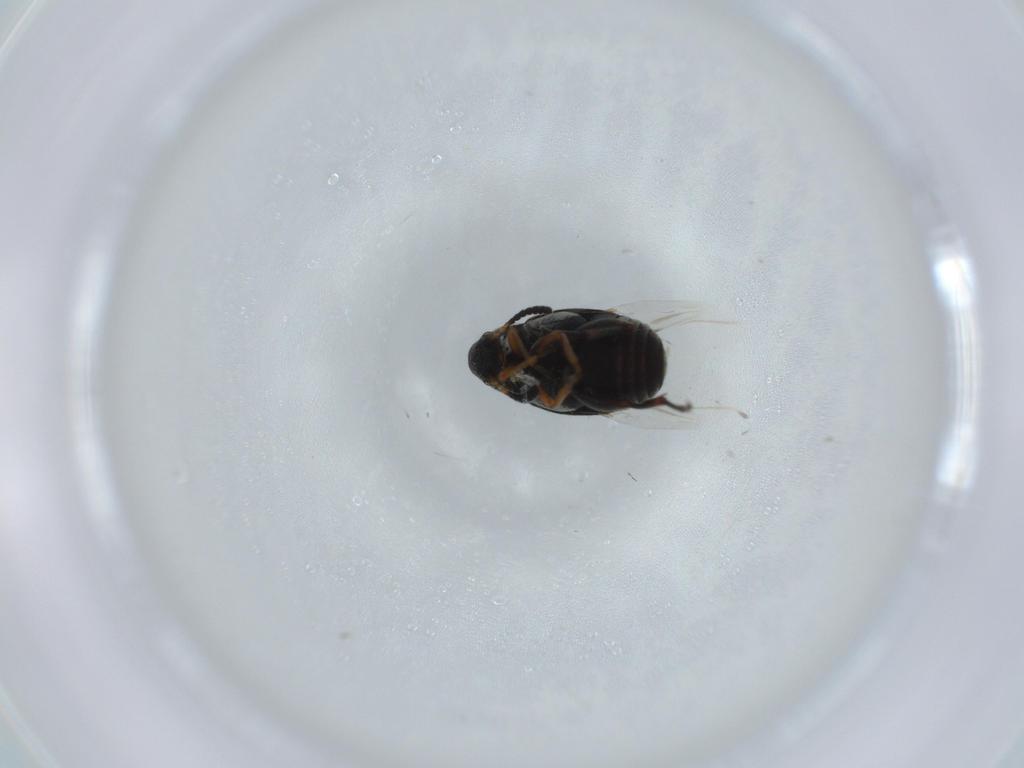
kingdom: Animalia
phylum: Arthropoda
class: Insecta
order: Coleoptera
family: Chrysomelidae
